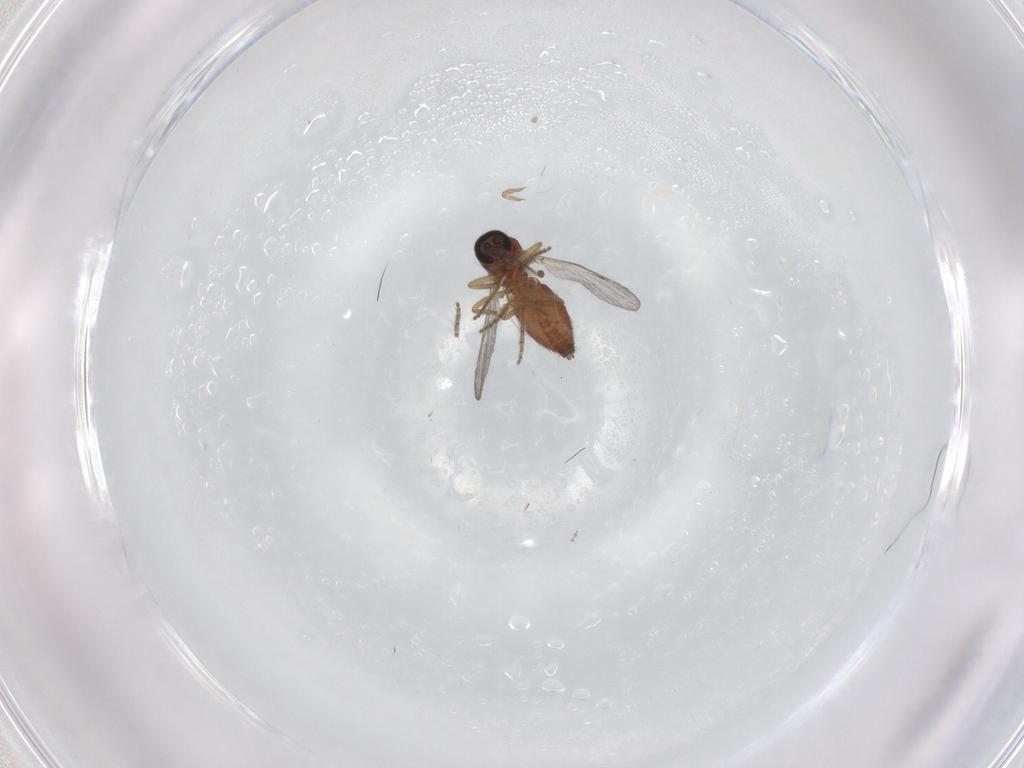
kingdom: Animalia
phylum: Arthropoda
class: Insecta
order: Diptera
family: Ceratopogonidae
